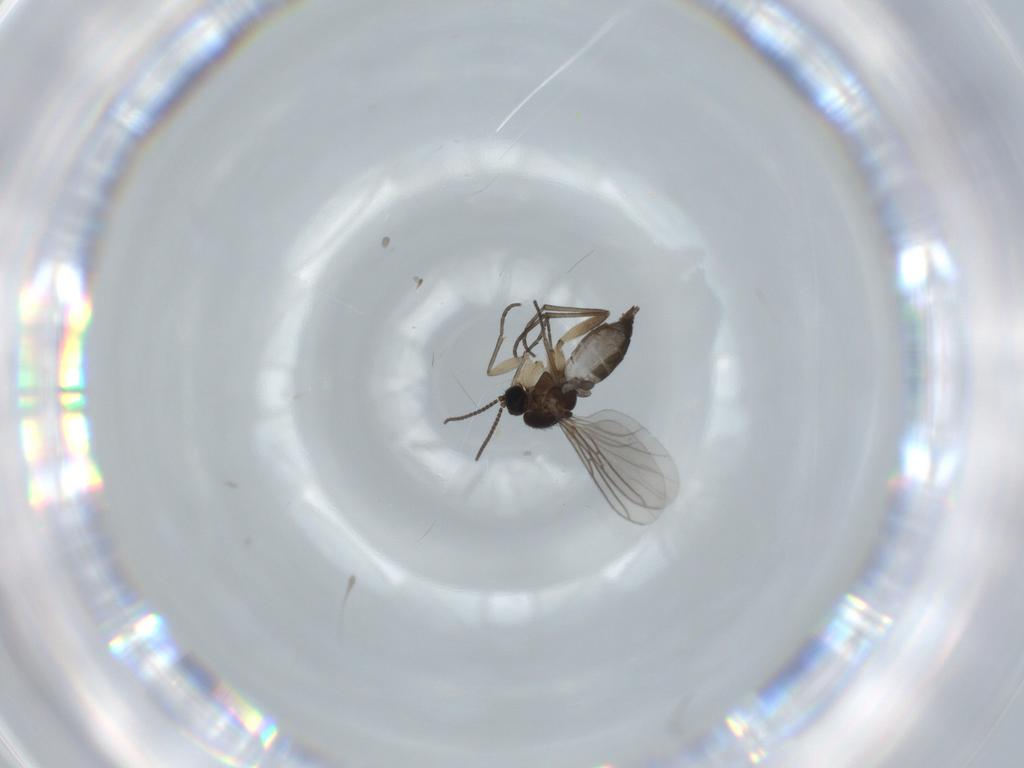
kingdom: Animalia
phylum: Arthropoda
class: Insecta
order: Diptera
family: Sciaridae
